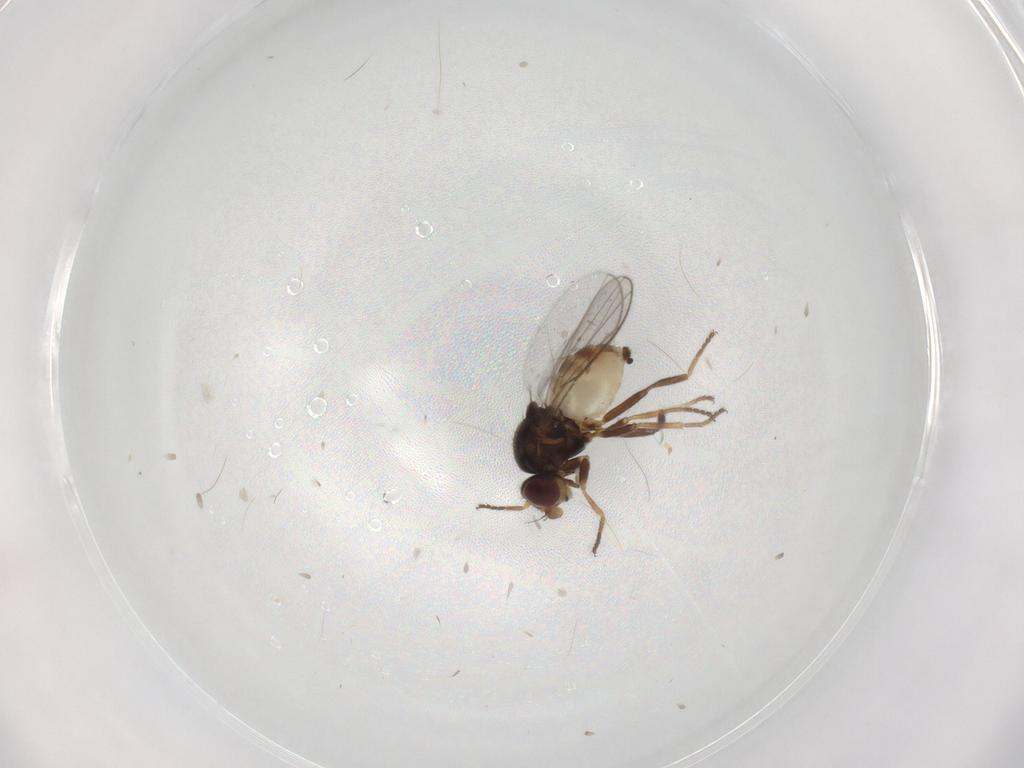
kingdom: Animalia
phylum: Arthropoda
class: Insecta
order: Diptera
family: Chloropidae
